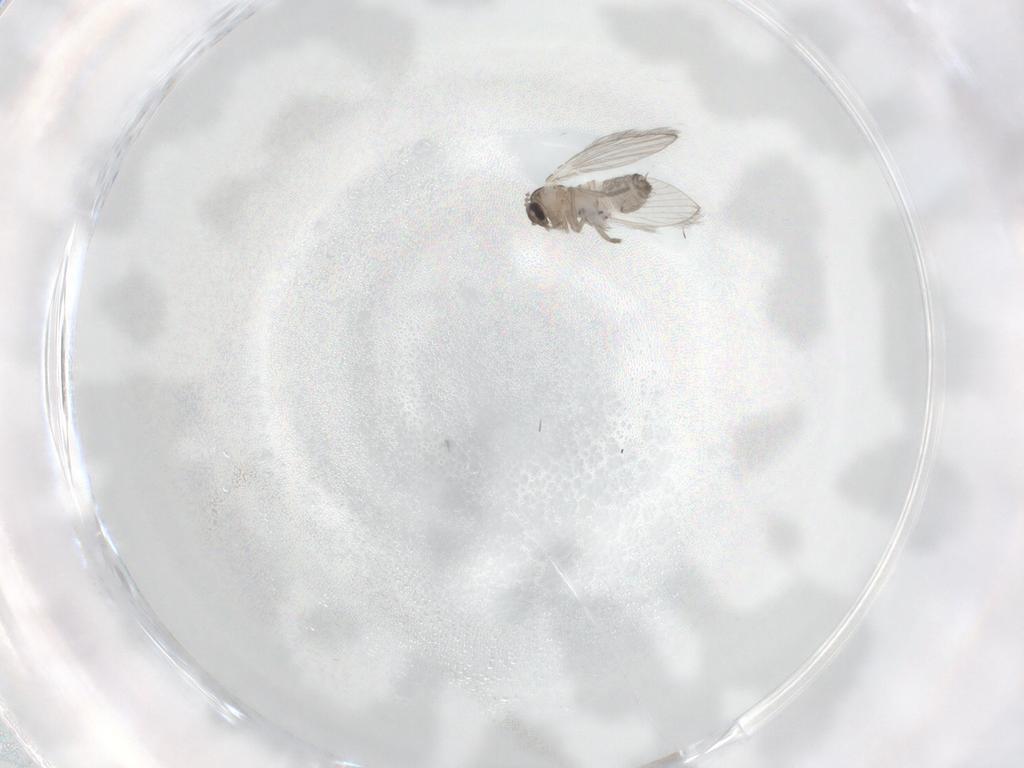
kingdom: Animalia
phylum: Arthropoda
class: Insecta
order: Diptera
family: Psychodidae
